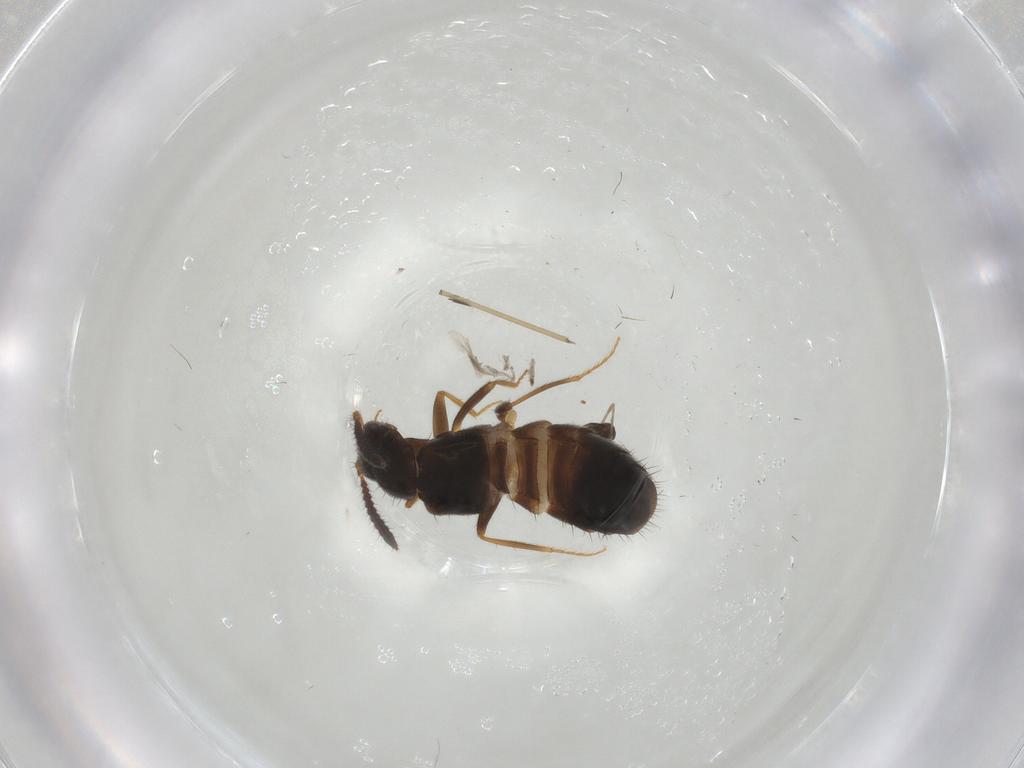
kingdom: Animalia
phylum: Arthropoda
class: Insecta
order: Coleoptera
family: Staphylinidae
